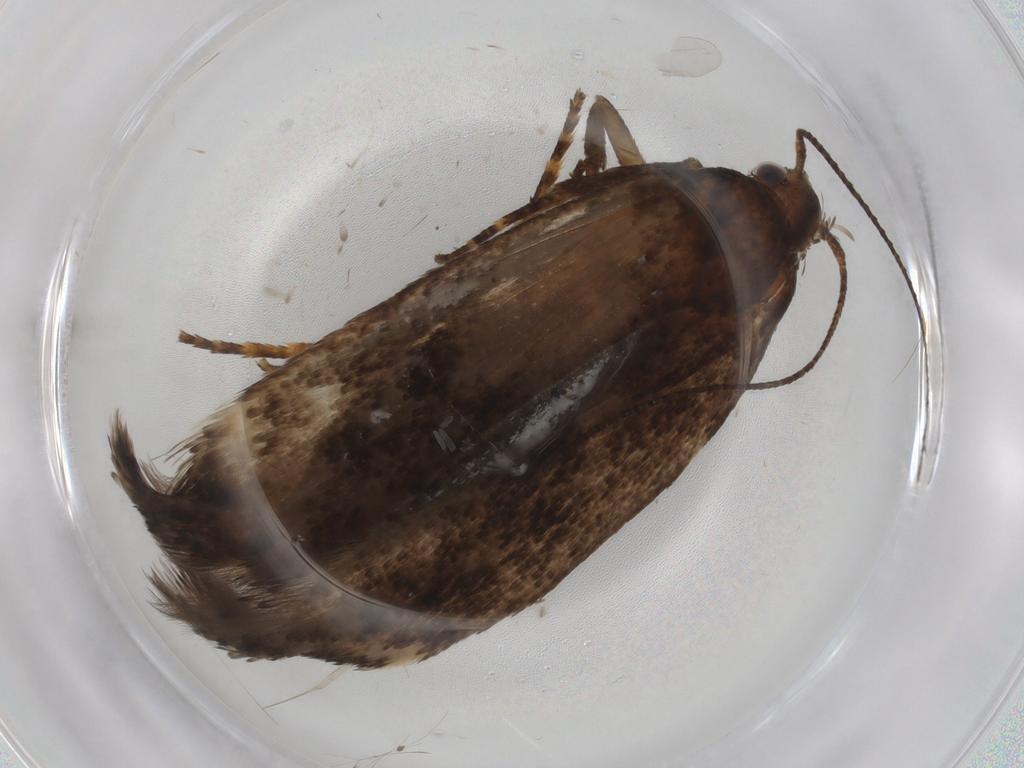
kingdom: Animalia
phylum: Arthropoda
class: Insecta
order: Lepidoptera
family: Gelechiidae
